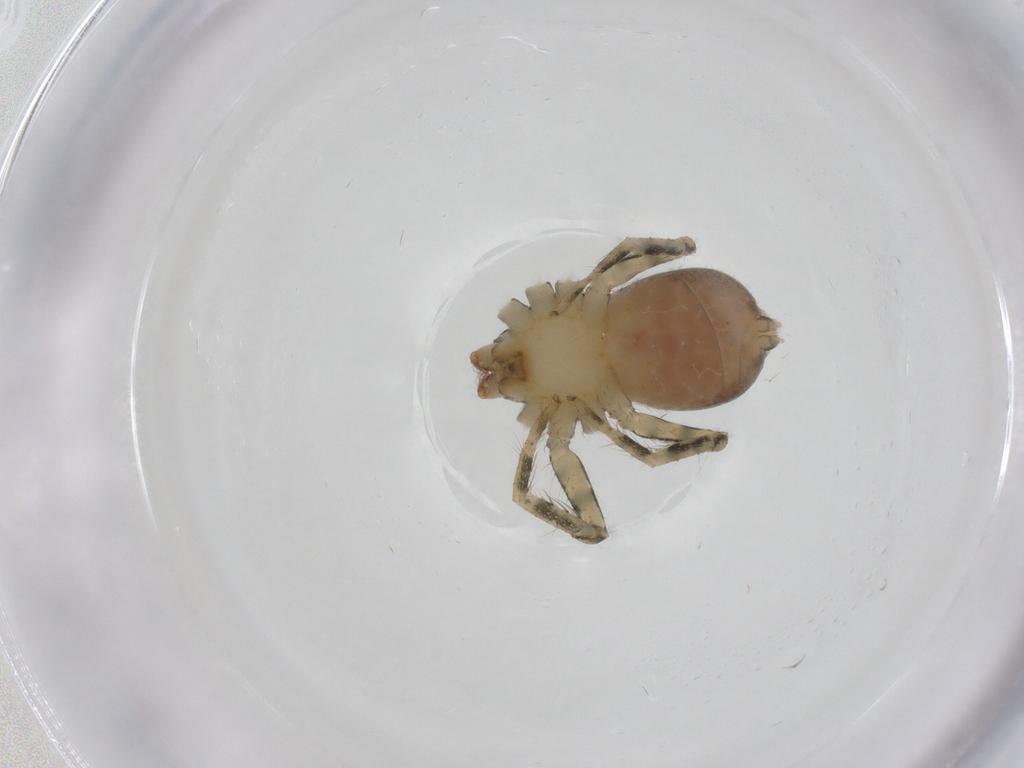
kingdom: Animalia
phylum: Arthropoda
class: Arachnida
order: Araneae
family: Selenopidae
